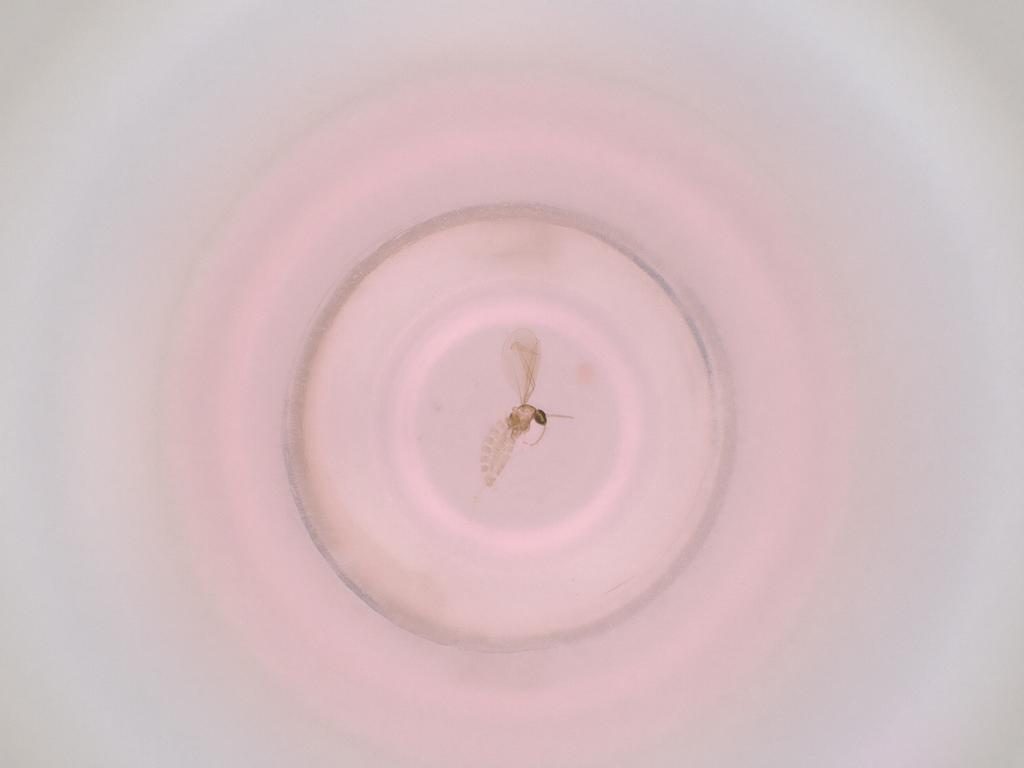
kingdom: Animalia
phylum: Arthropoda
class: Insecta
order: Diptera
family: Cecidomyiidae
